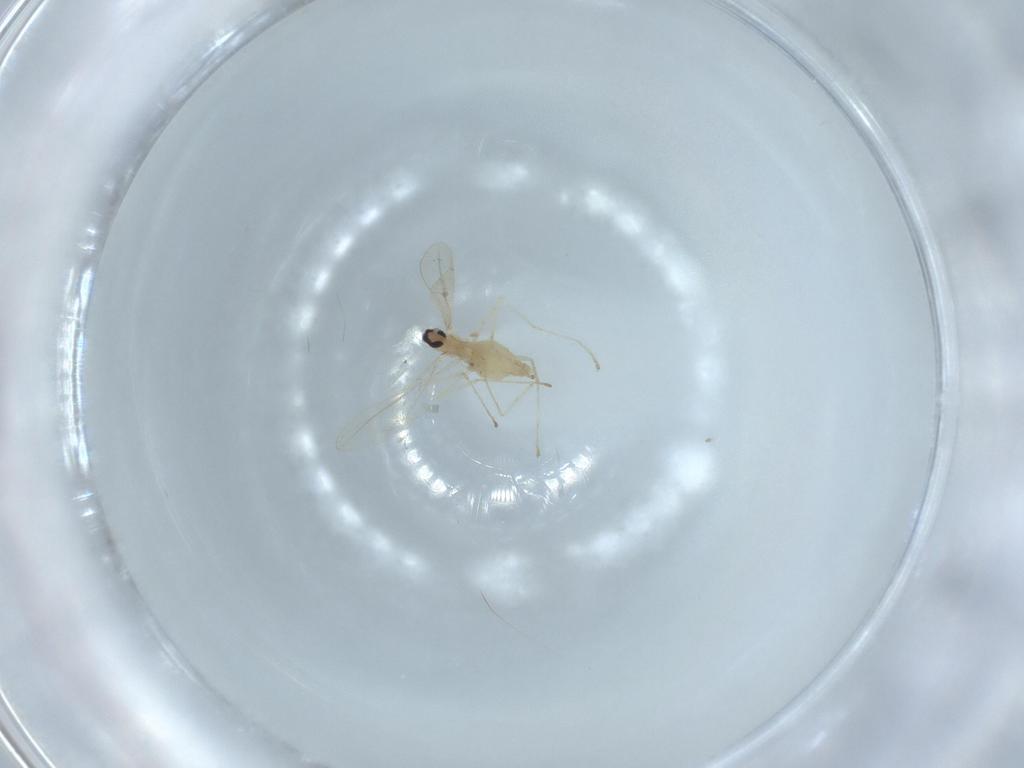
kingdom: Animalia
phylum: Arthropoda
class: Insecta
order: Diptera
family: Cecidomyiidae
